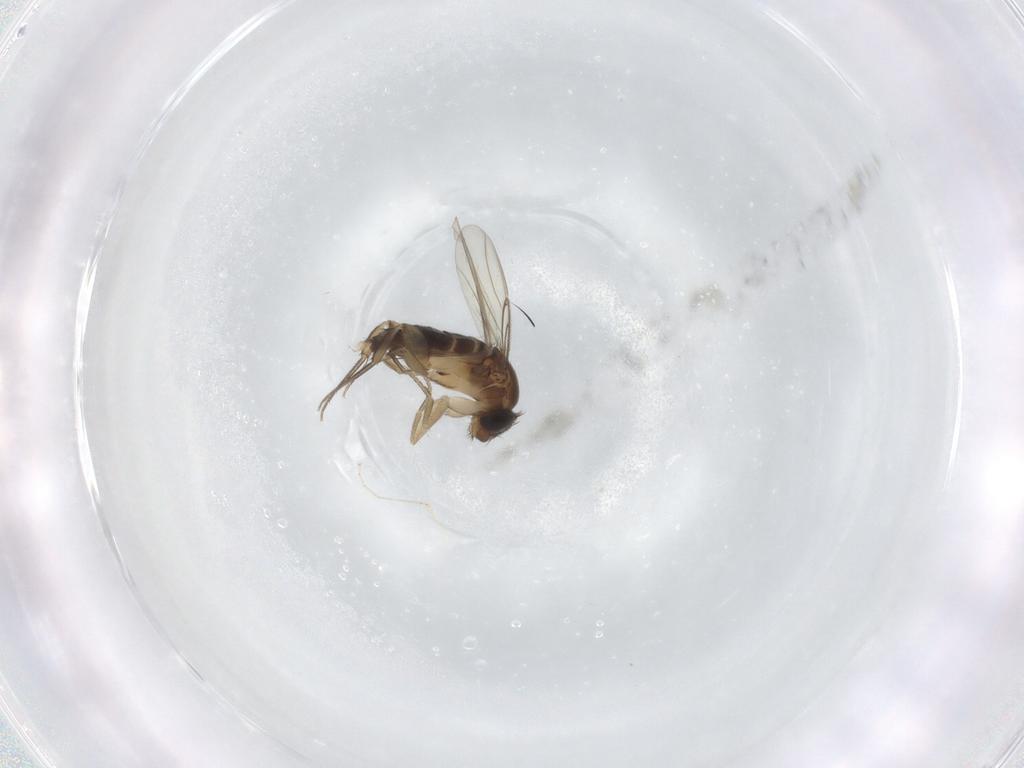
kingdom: Animalia
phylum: Arthropoda
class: Insecta
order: Diptera
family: Phoridae
